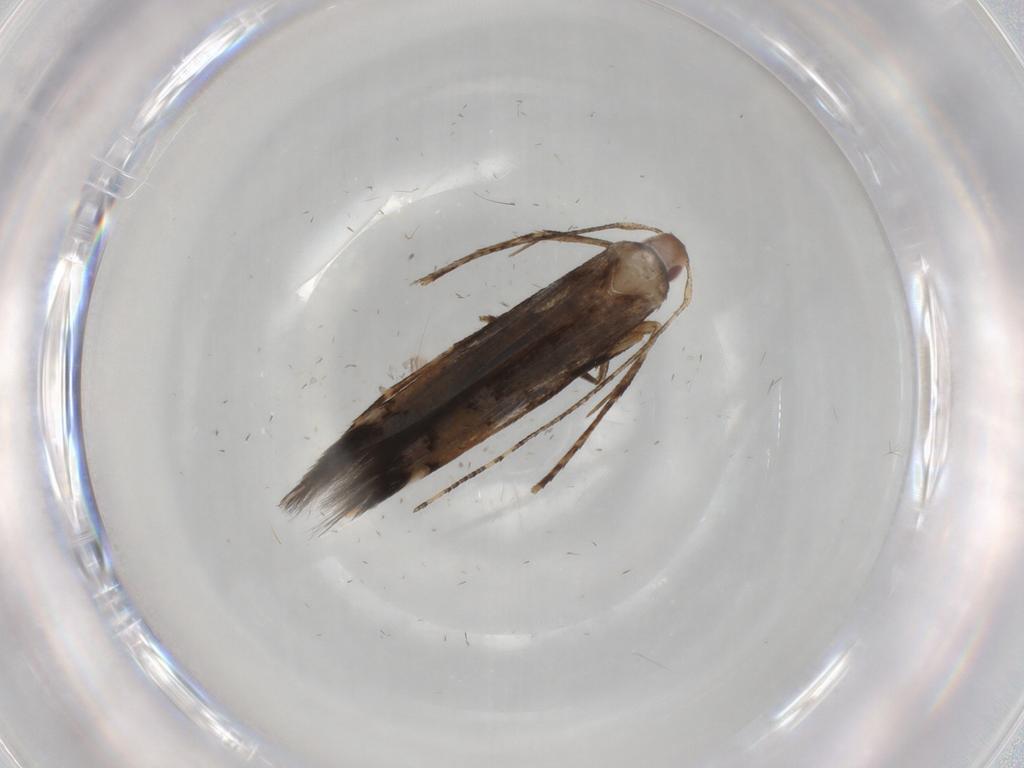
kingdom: Animalia
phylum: Arthropoda
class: Insecta
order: Lepidoptera
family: Cosmopterigidae
